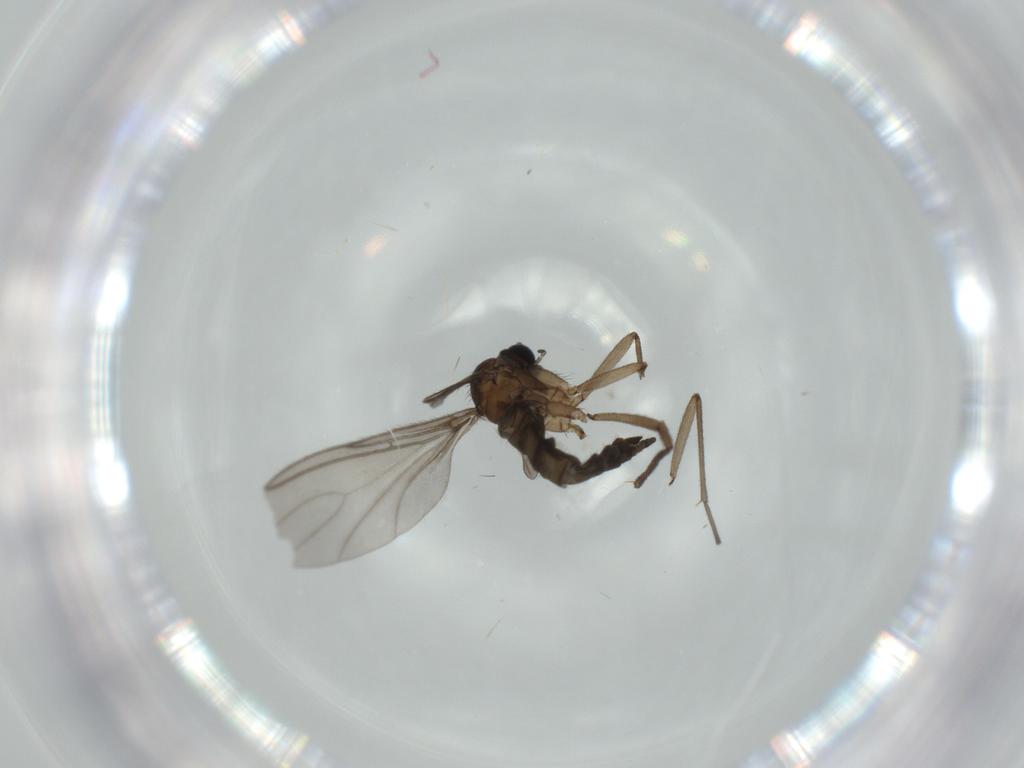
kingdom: Animalia
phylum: Arthropoda
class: Insecta
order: Diptera
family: Sciaridae
